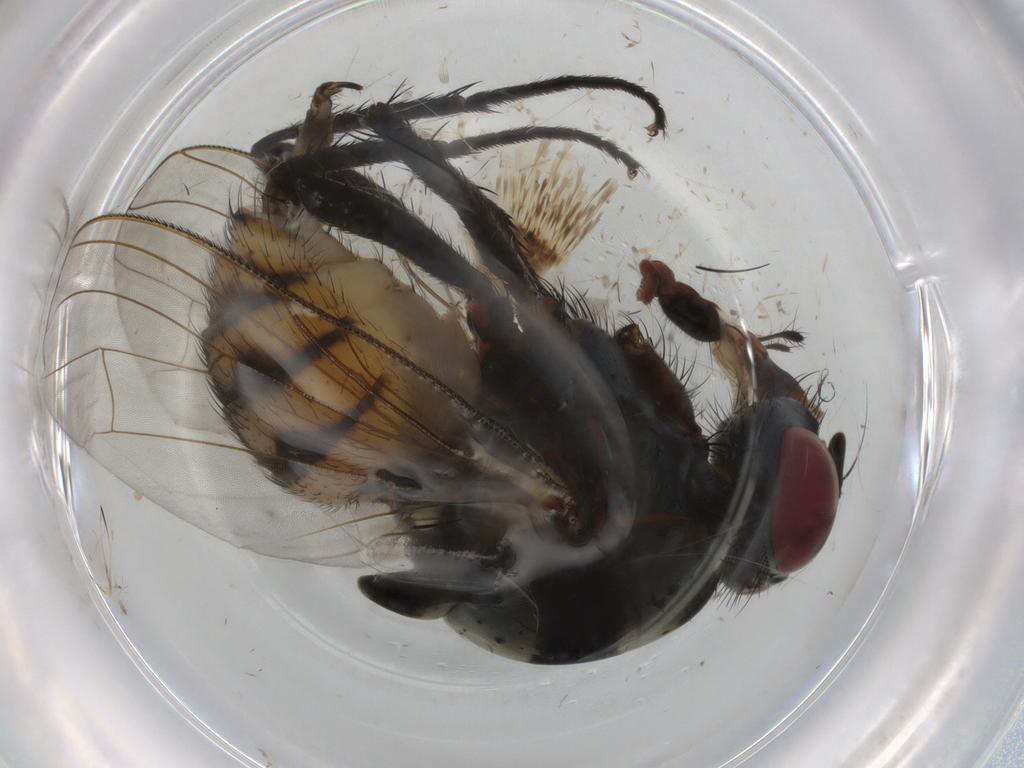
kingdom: Animalia
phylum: Arthropoda
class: Insecta
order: Diptera
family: Anthomyiidae
